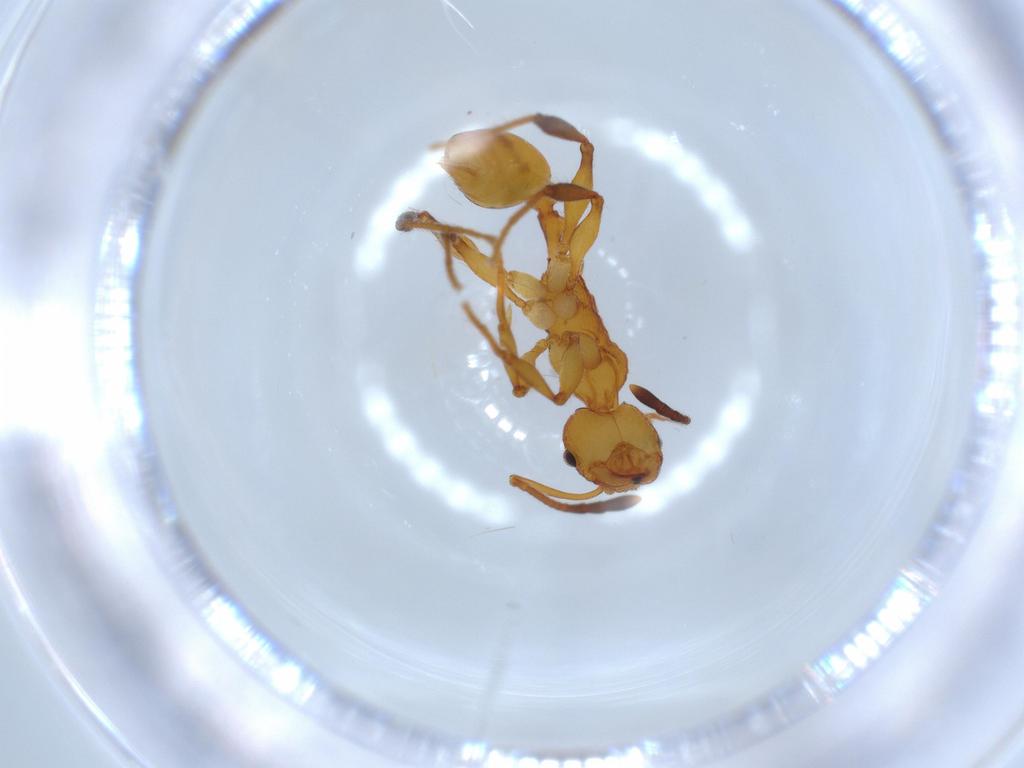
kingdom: Animalia
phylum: Arthropoda
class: Insecta
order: Hymenoptera
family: Formicidae
